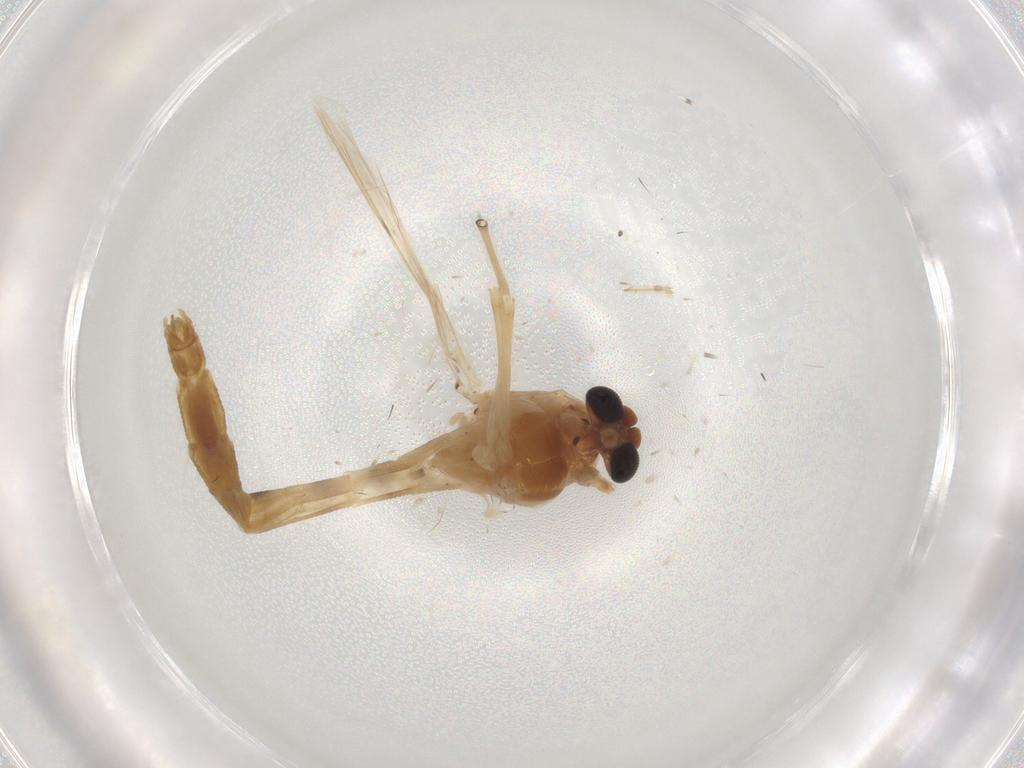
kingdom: Animalia
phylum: Arthropoda
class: Insecta
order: Diptera
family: Chironomidae
